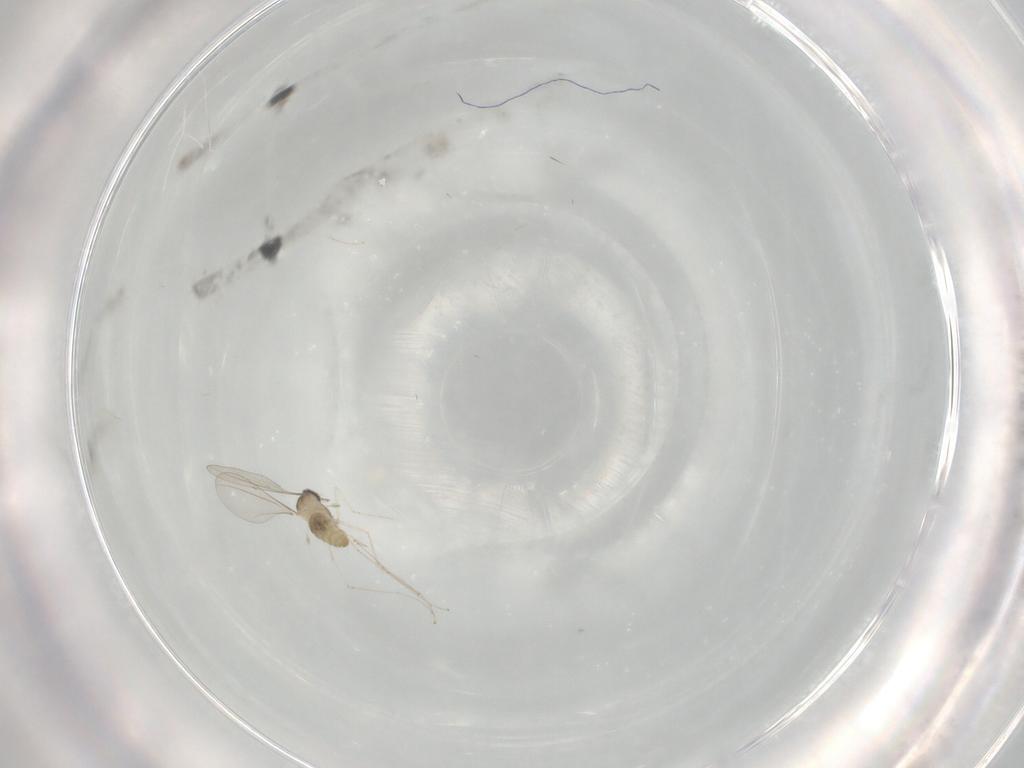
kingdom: Animalia
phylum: Arthropoda
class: Insecta
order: Diptera
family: Cecidomyiidae
